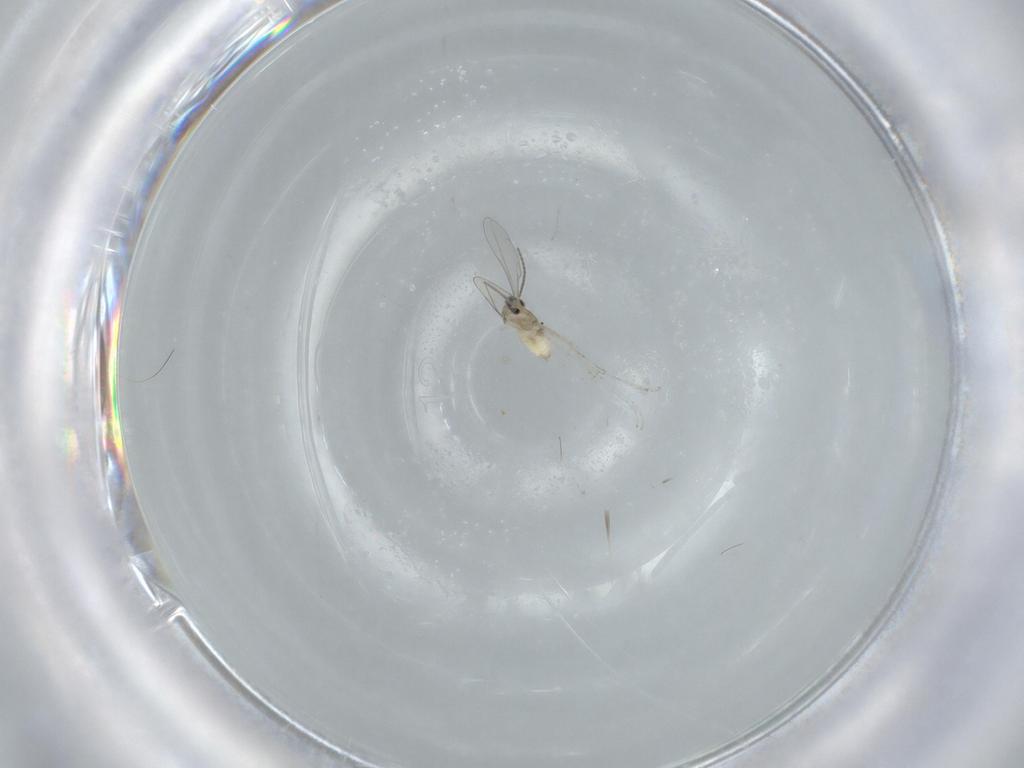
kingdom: Animalia
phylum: Arthropoda
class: Insecta
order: Diptera
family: Cecidomyiidae
